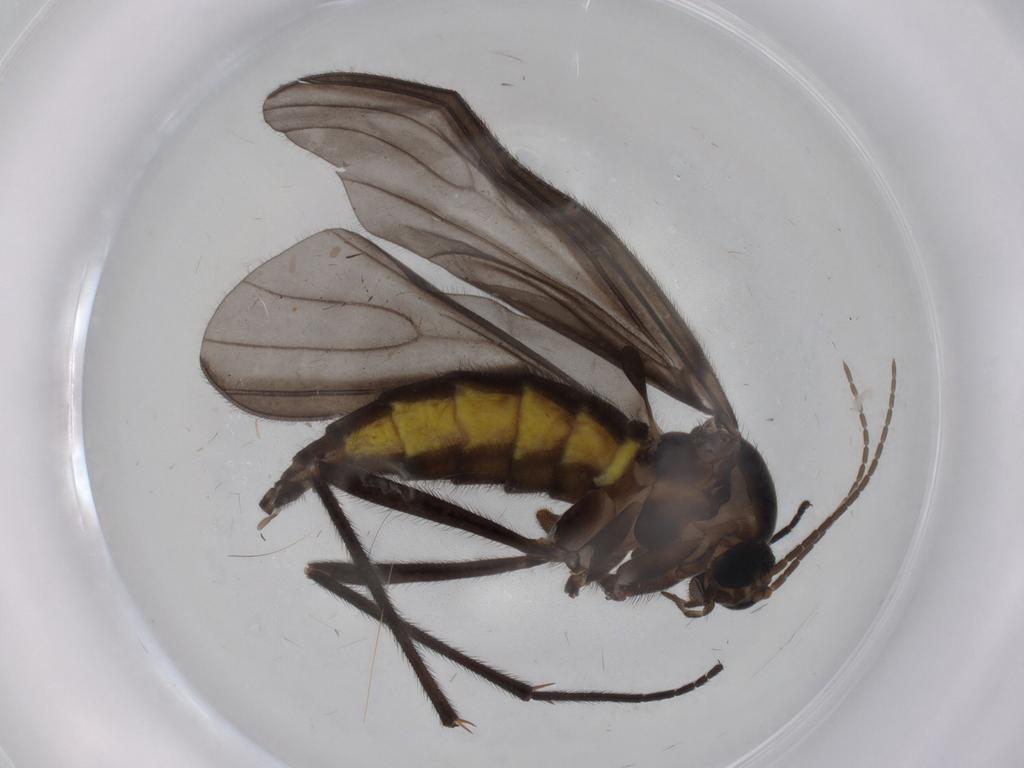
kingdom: Animalia
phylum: Arthropoda
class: Insecta
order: Diptera
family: Sciaridae
